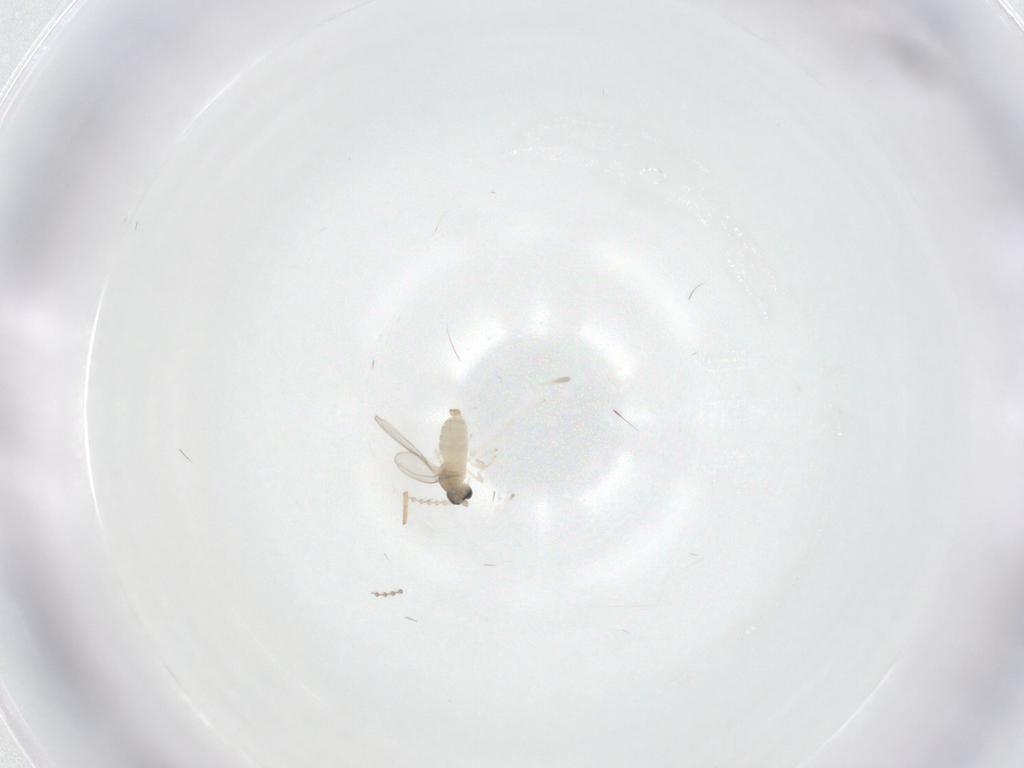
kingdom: Animalia
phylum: Arthropoda
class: Insecta
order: Diptera
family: Cecidomyiidae
